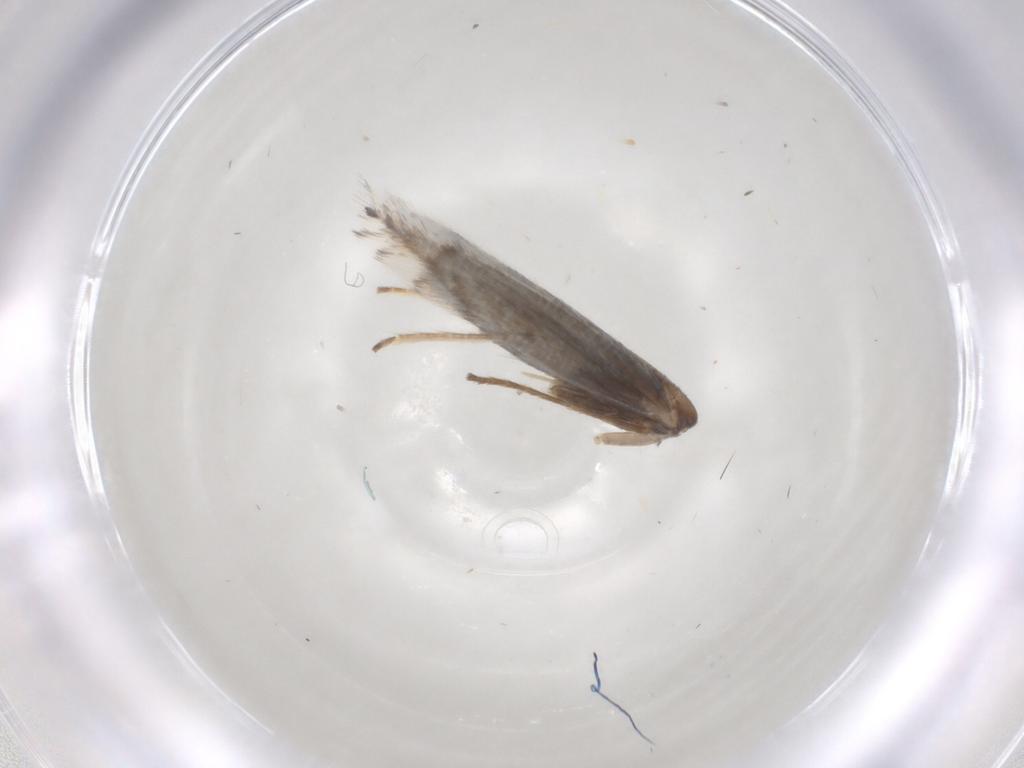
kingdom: Animalia
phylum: Arthropoda
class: Insecta
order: Lepidoptera
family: Gracillariidae
